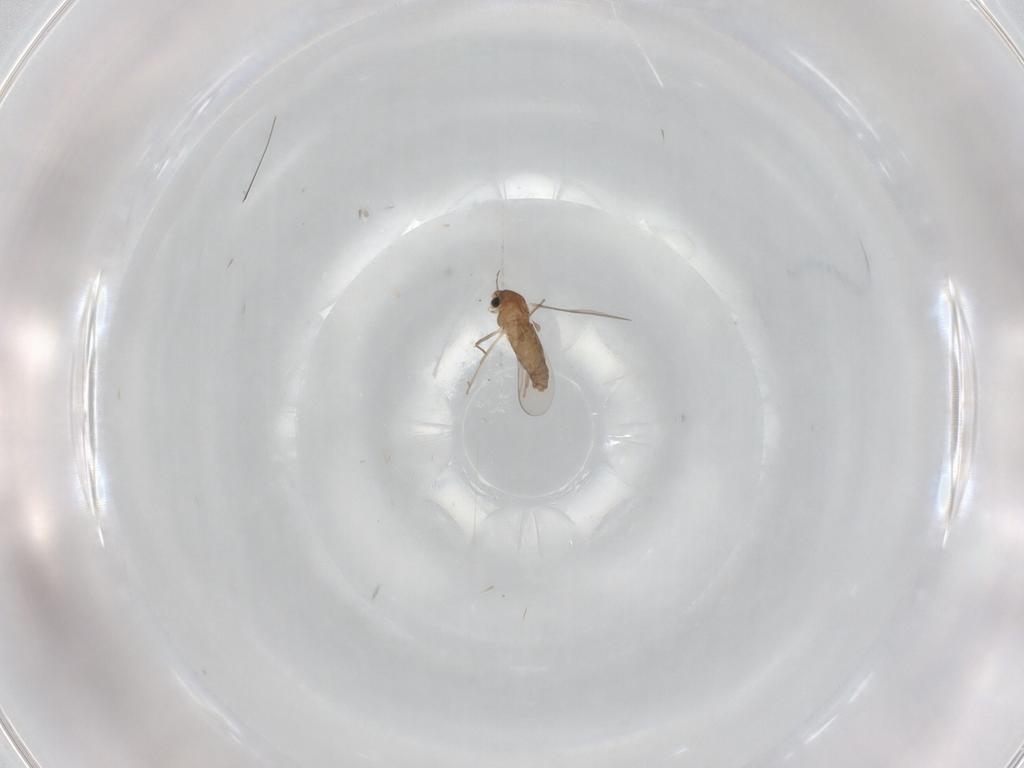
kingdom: Animalia
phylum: Arthropoda
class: Insecta
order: Diptera
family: Chironomidae
